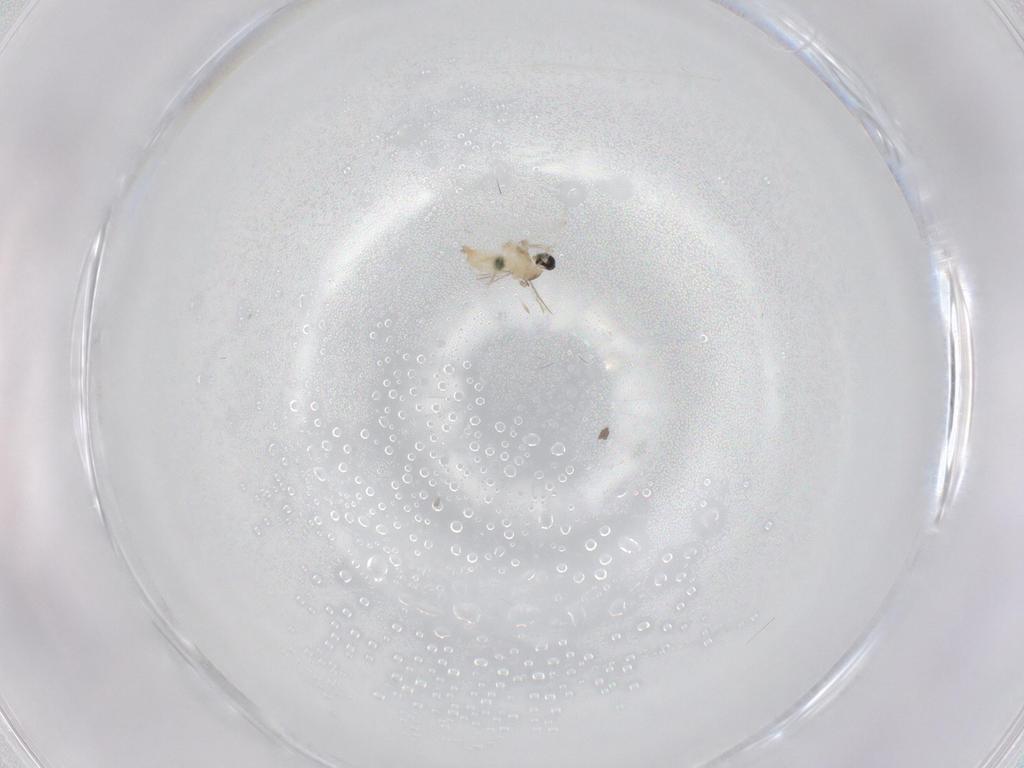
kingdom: Animalia
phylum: Arthropoda
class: Insecta
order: Diptera
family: Cecidomyiidae
